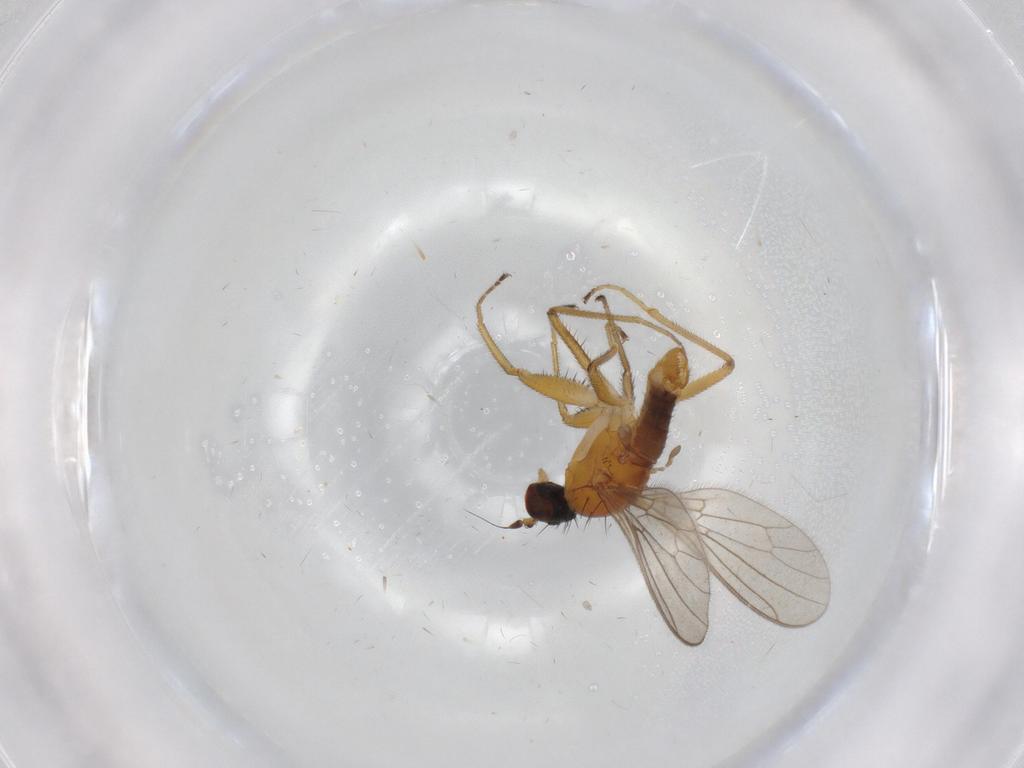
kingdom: Animalia
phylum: Arthropoda
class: Insecta
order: Diptera
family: Empididae
